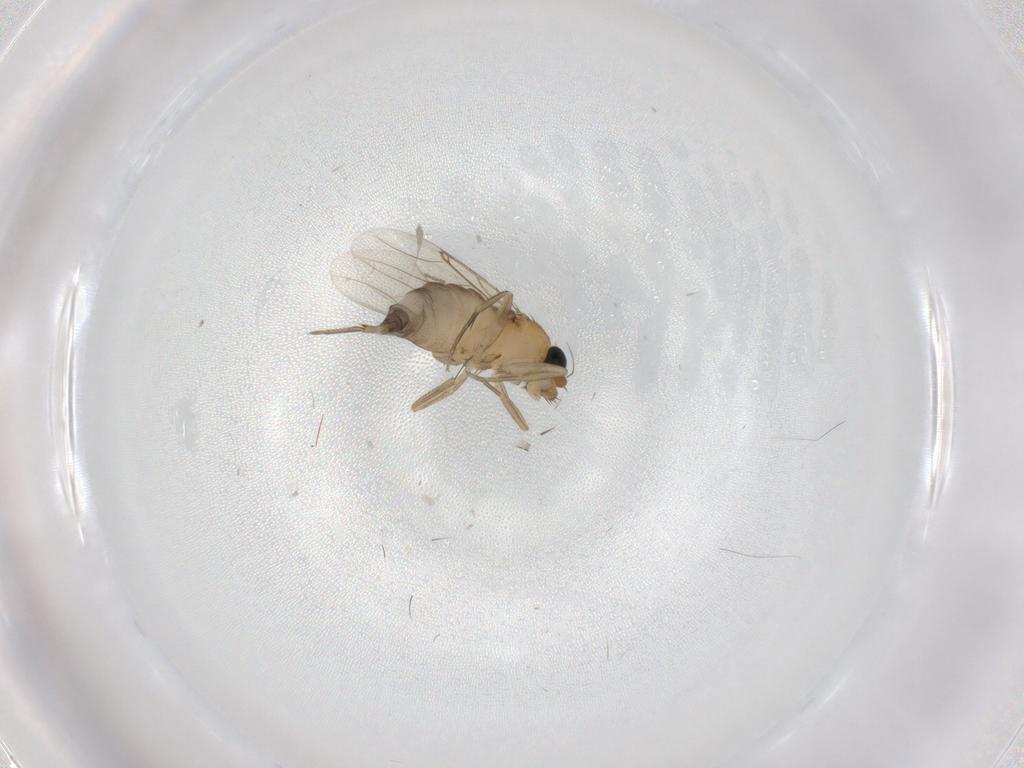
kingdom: Animalia
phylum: Arthropoda
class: Insecta
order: Diptera
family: Phoridae
